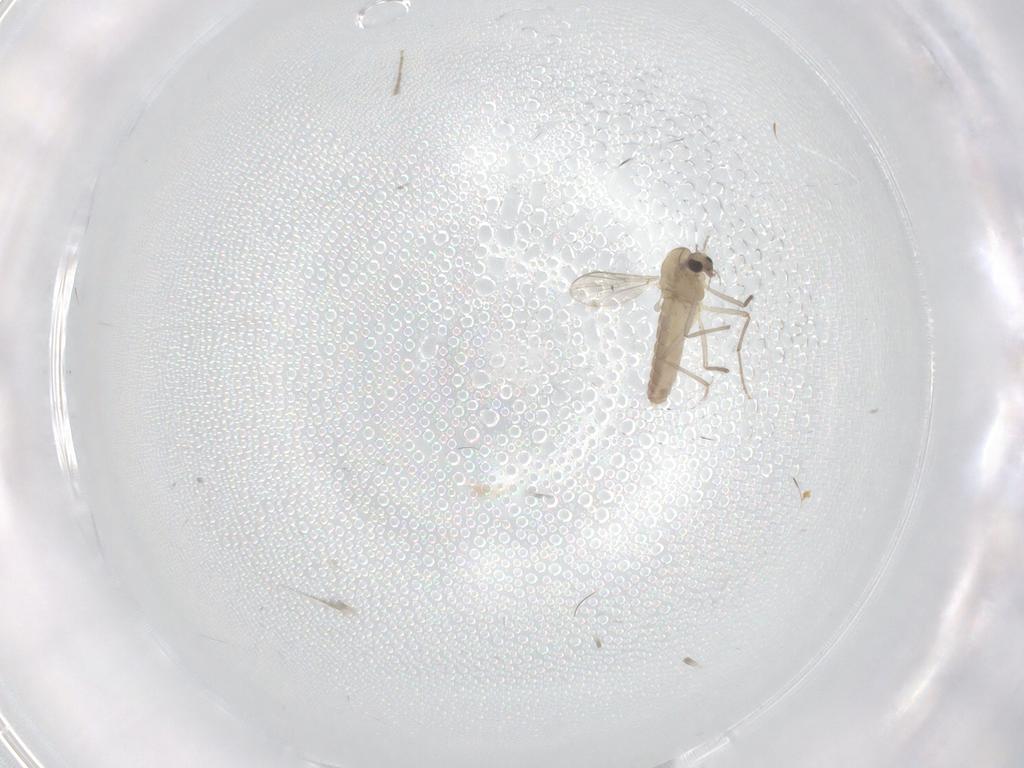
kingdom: Animalia
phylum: Arthropoda
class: Insecta
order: Diptera
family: Chironomidae
